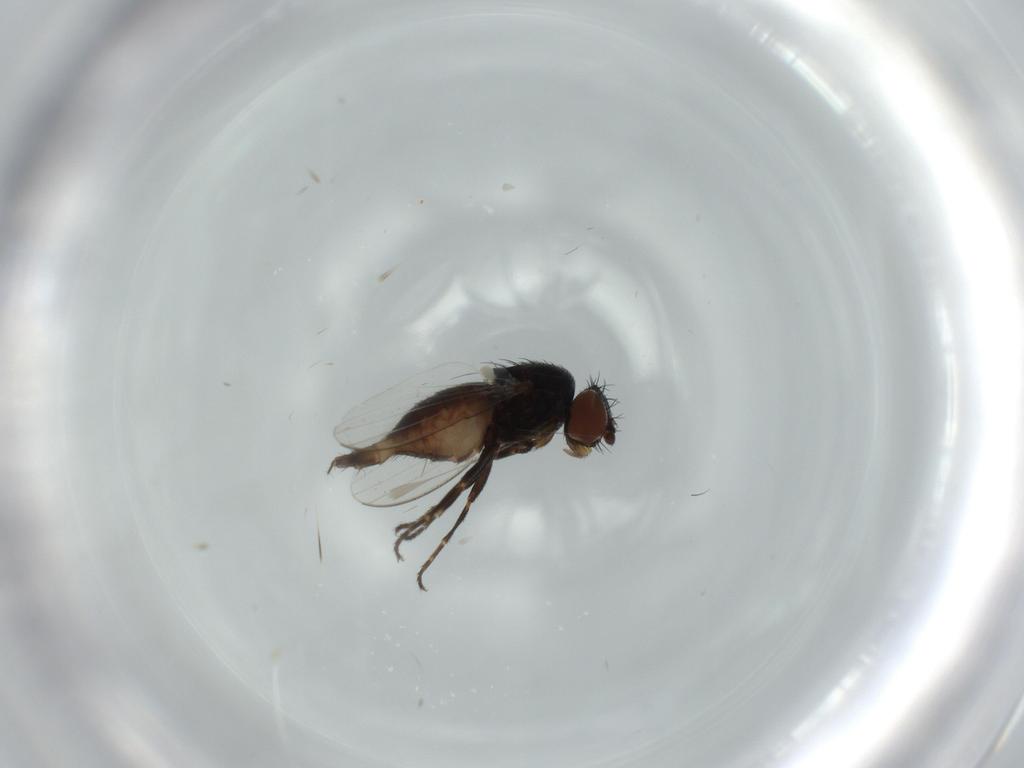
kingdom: Animalia
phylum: Arthropoda
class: Insecta
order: Diptera
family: Milichiidae
